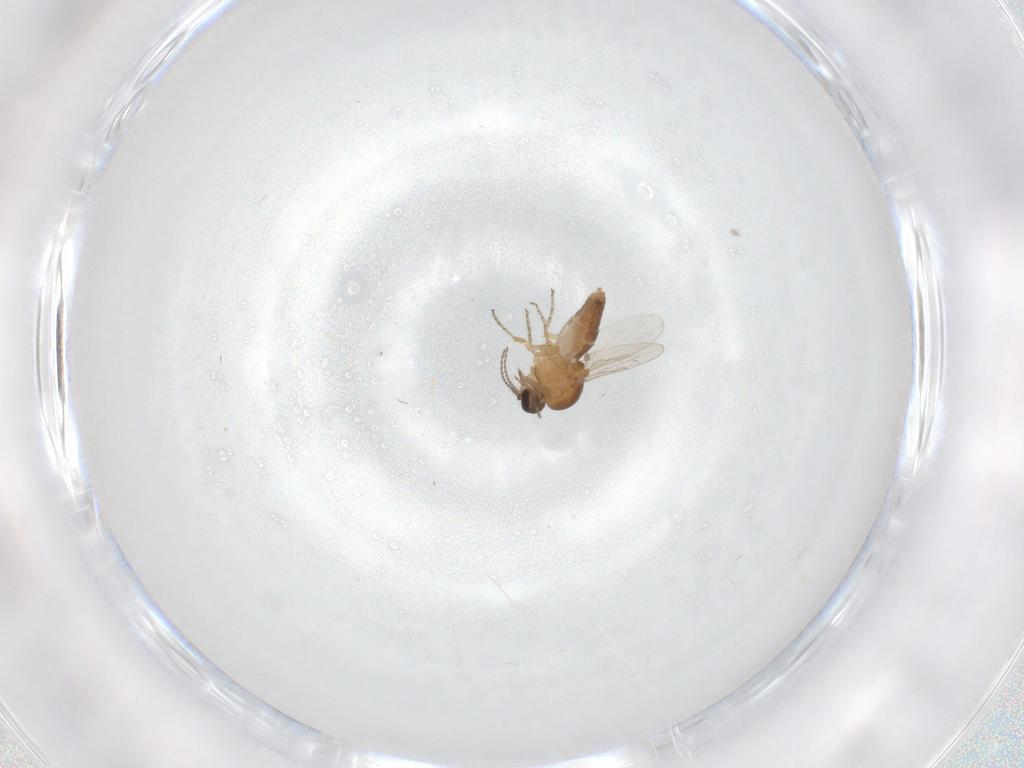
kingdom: Animalia
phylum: Arthropoda
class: Insecta
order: Diptera
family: Ceratopogonidae
